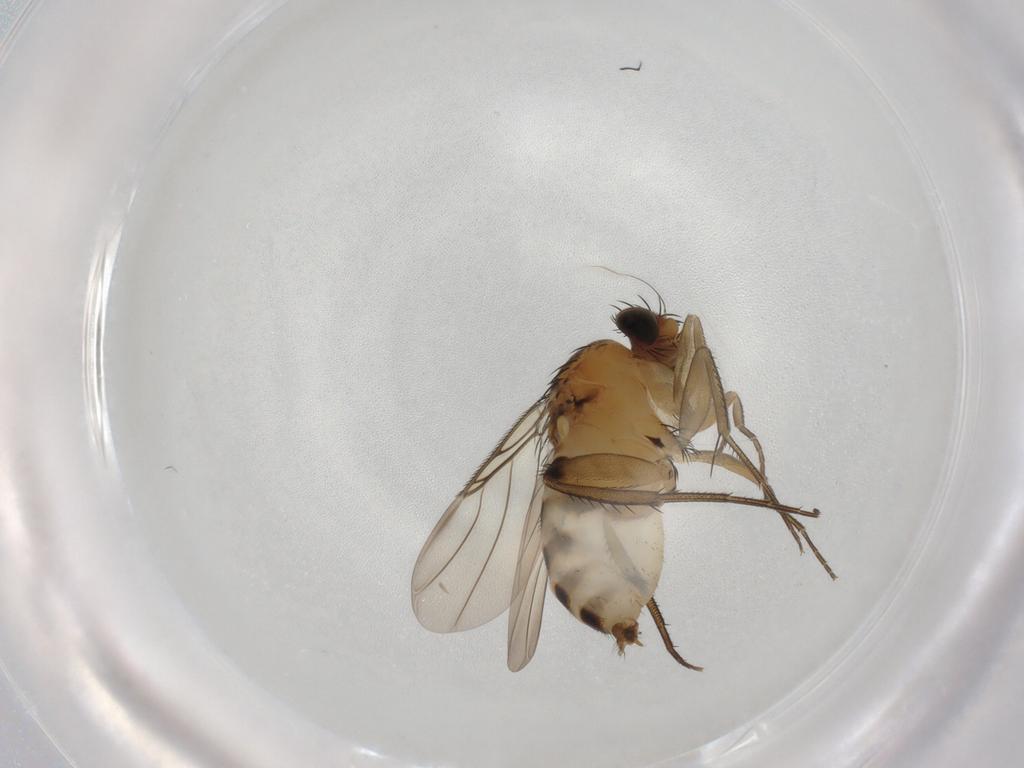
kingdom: Animalia
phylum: Arthropoda
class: Insecta
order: Diptera
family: Phoridae
